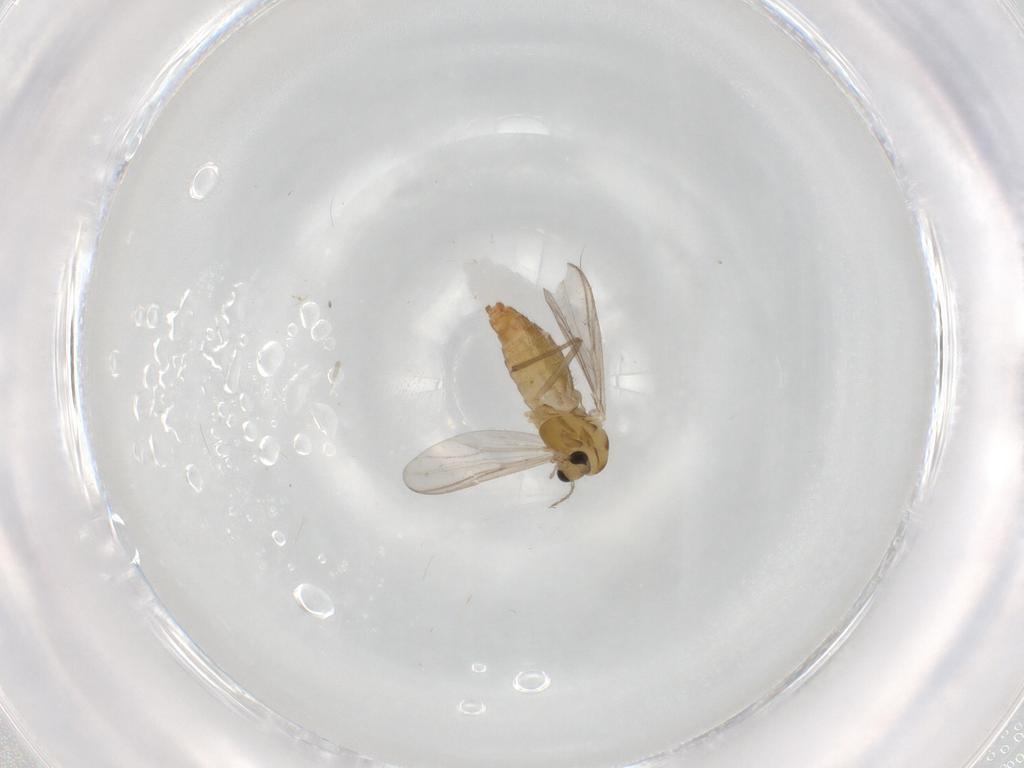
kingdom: Animalia
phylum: Arthropoda
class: Insecta
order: Diptera
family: Chironomidae
